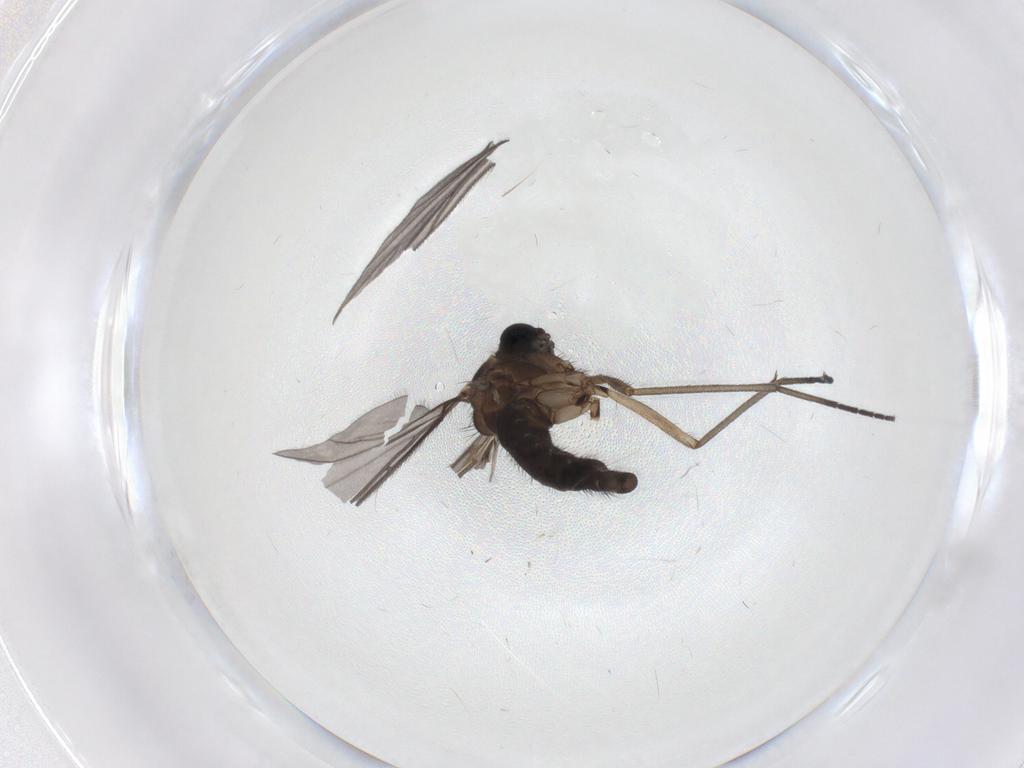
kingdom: Animalia
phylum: Arthropoda
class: Insecta
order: Diptera
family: Sciaridae
